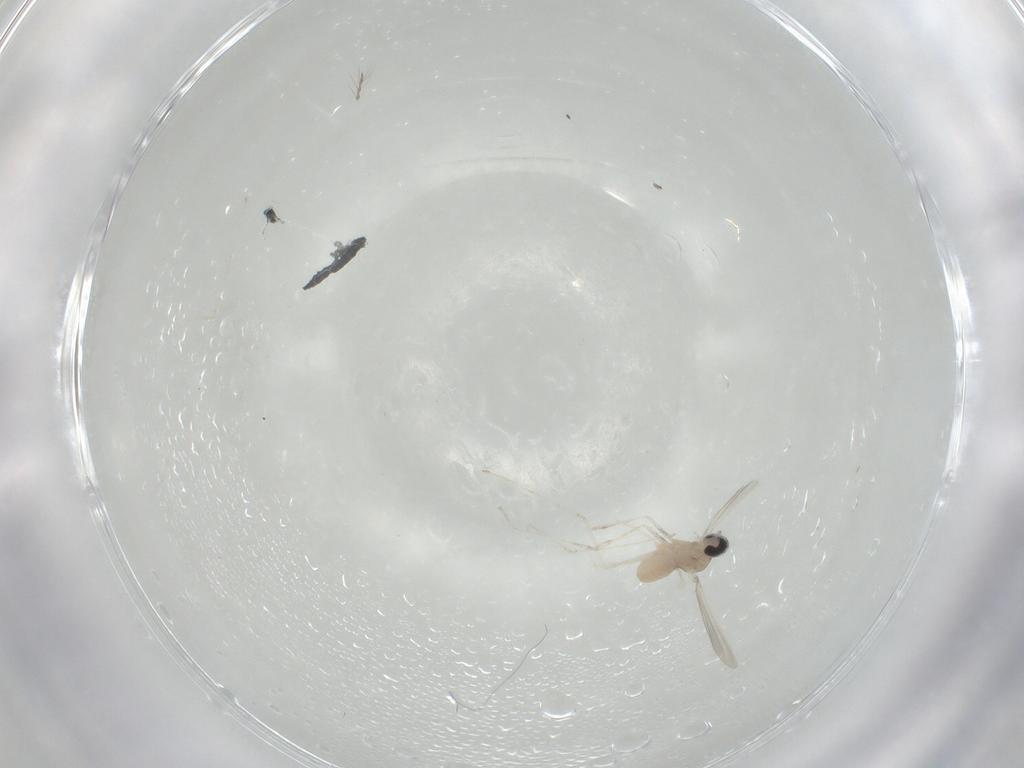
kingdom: Animalia
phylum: Arthropoda
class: Insecta
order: Diptera
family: Cecidomyiidae
